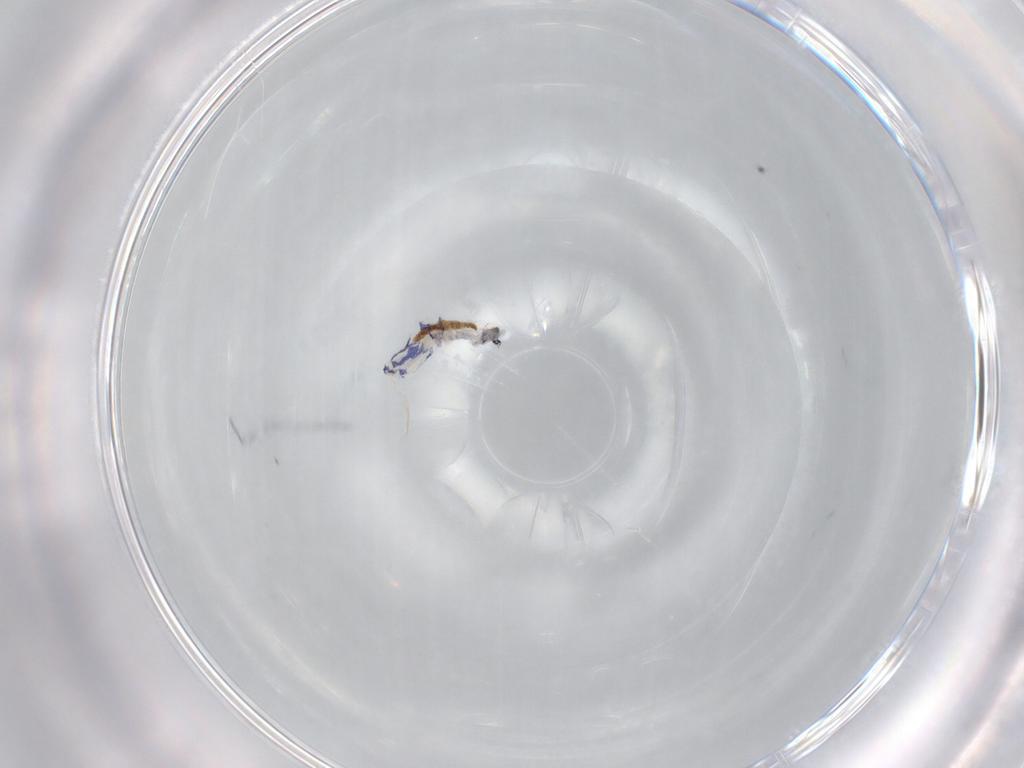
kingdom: Animalia
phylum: Arthropoda
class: Collembola
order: Entomobryomorpha
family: Entomobryidae
